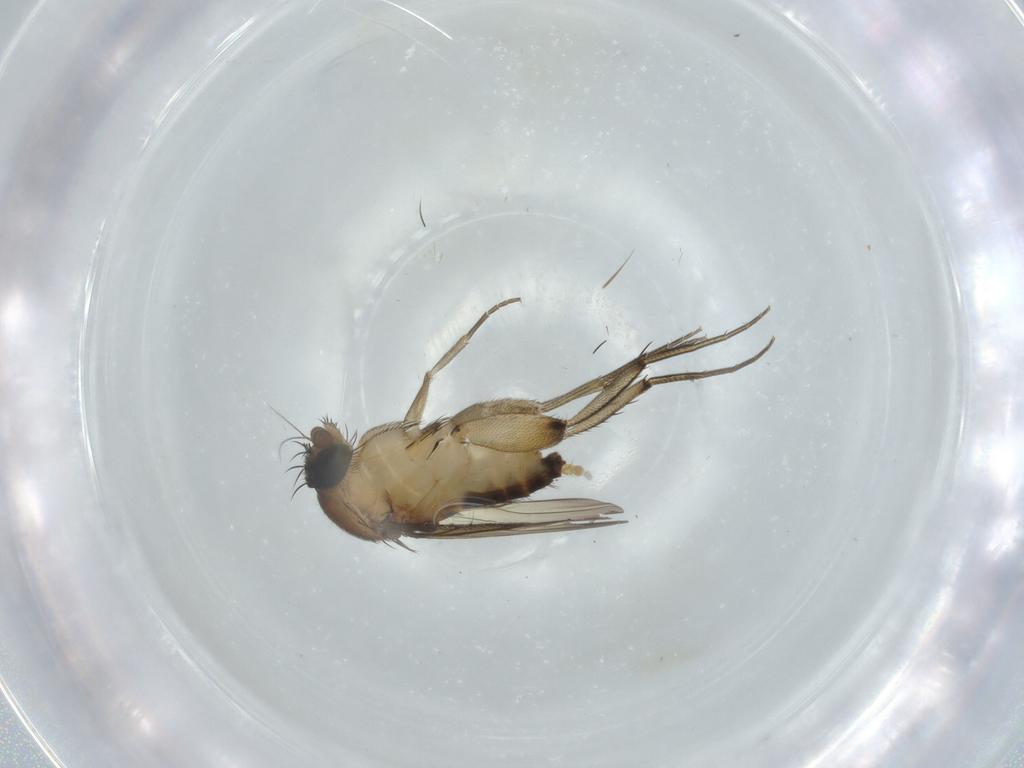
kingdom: Animalia
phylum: Arthropoda
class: Insecta
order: Diptera
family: Phoridae
